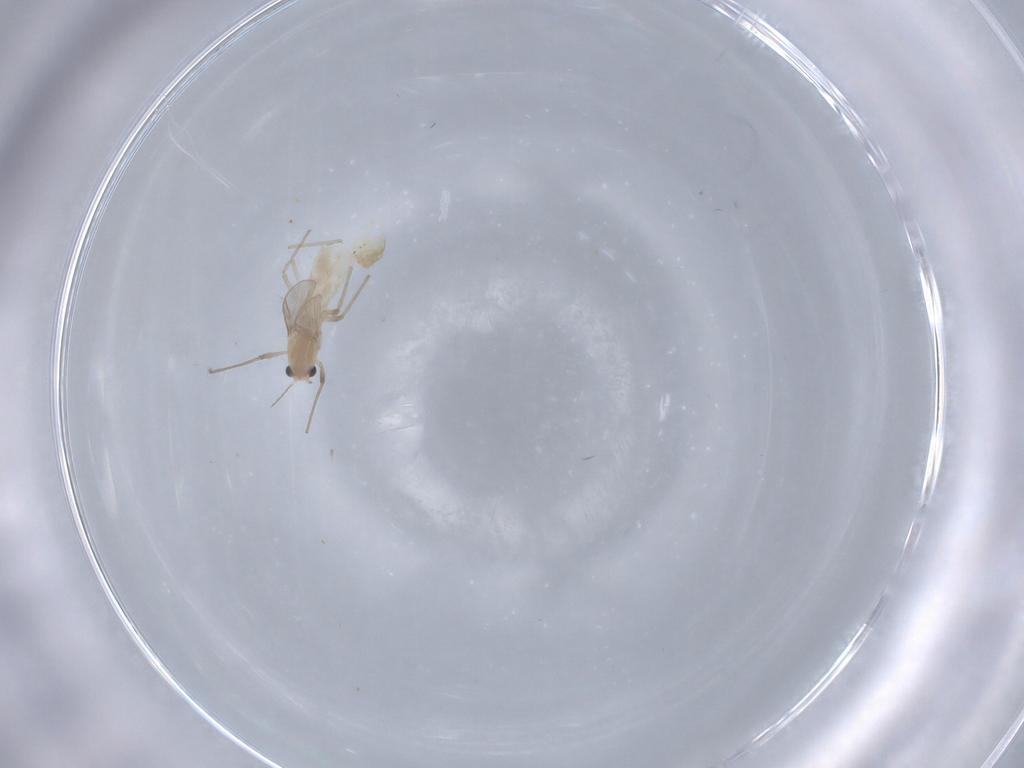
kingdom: Animalia
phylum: Arthropoda
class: Insecta
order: Diptera
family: Chironomidae
